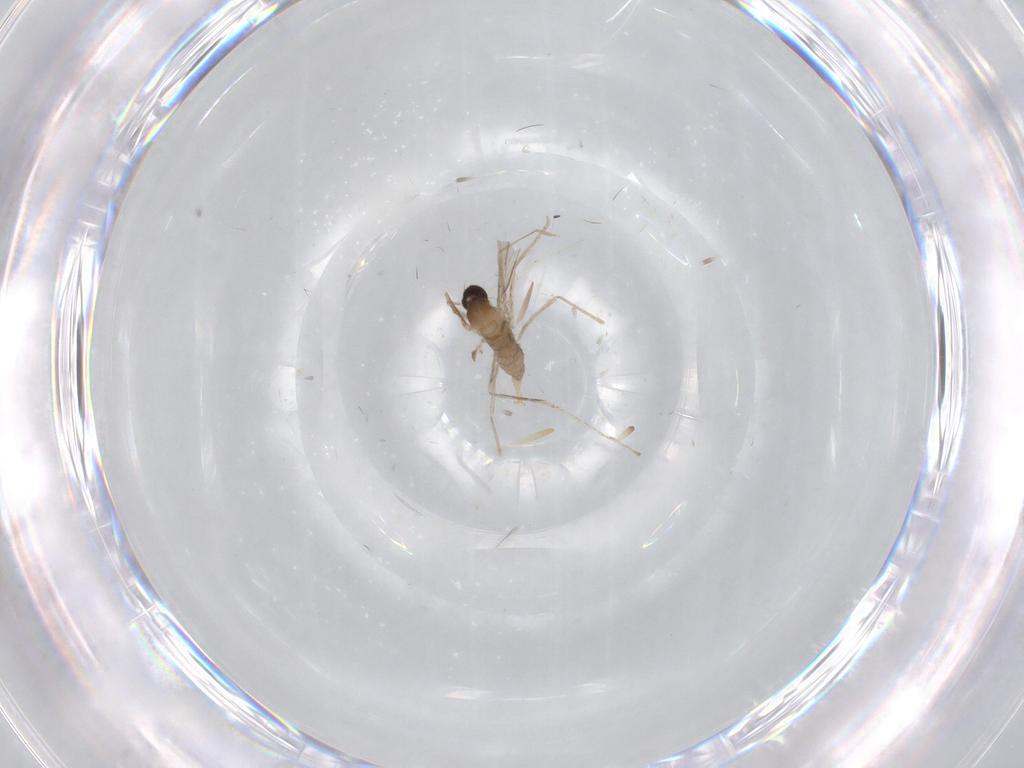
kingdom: Animalia
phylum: Arthropoda
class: Insecta
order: Diptera
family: Cecidomyiidae
